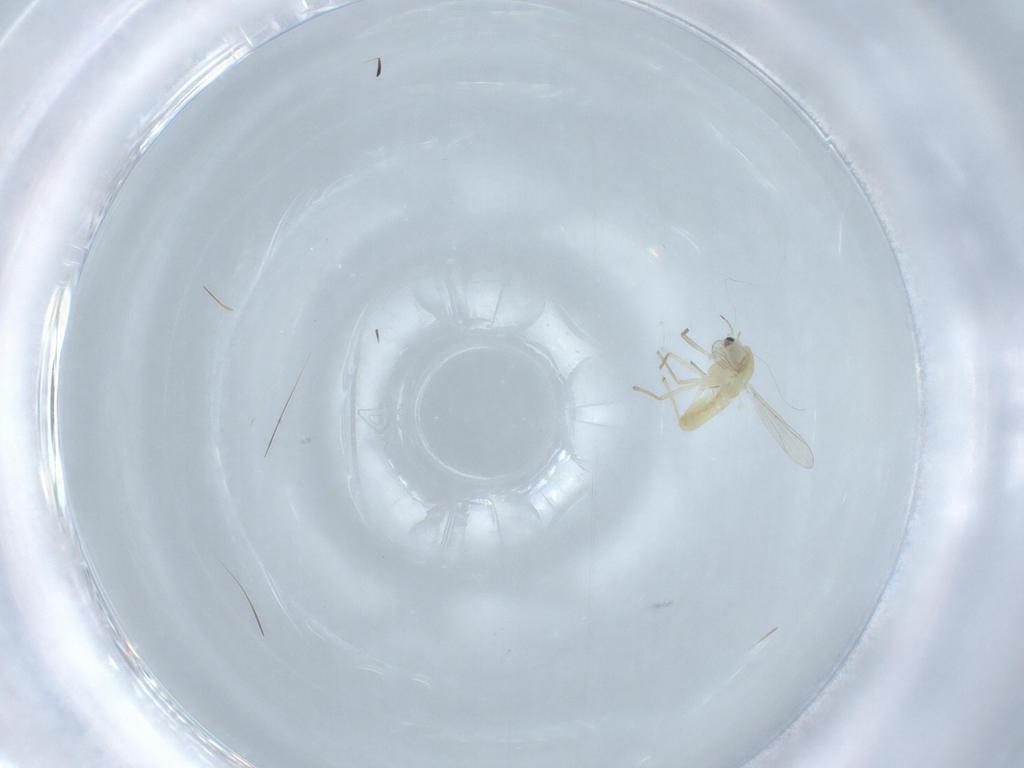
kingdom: Animalia
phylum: Arthropoda
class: Insecta
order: Diptera
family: Chironomidae
